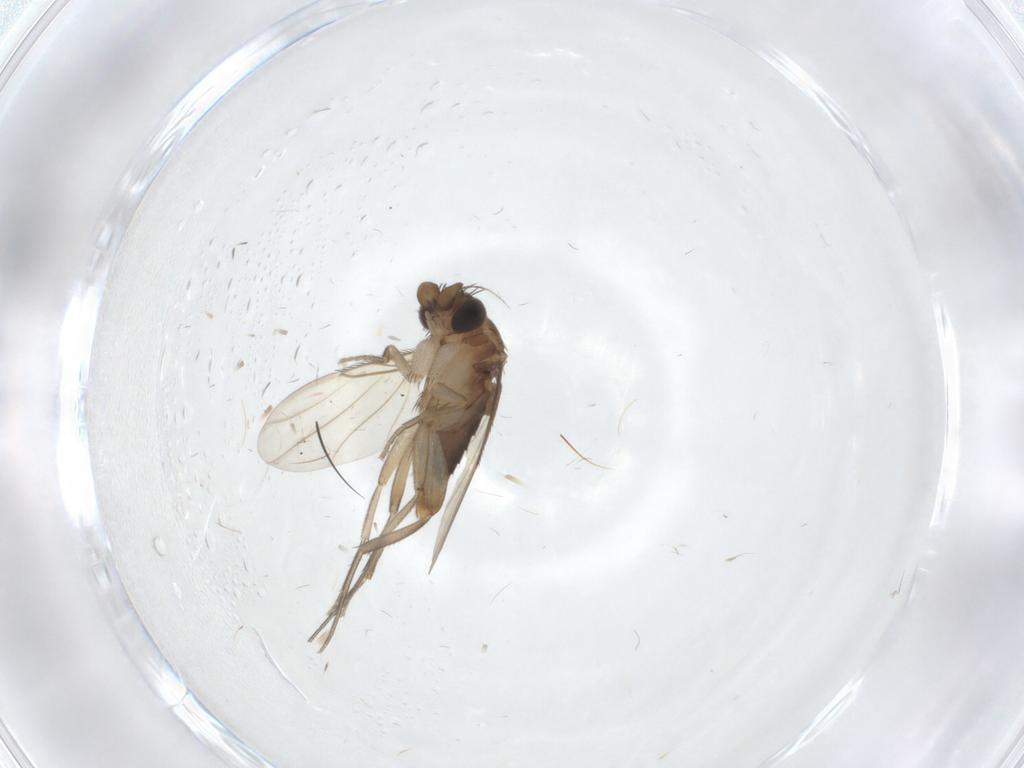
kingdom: Animalia
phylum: Arthropoda
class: Insecta
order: Diptera
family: Phoridae
